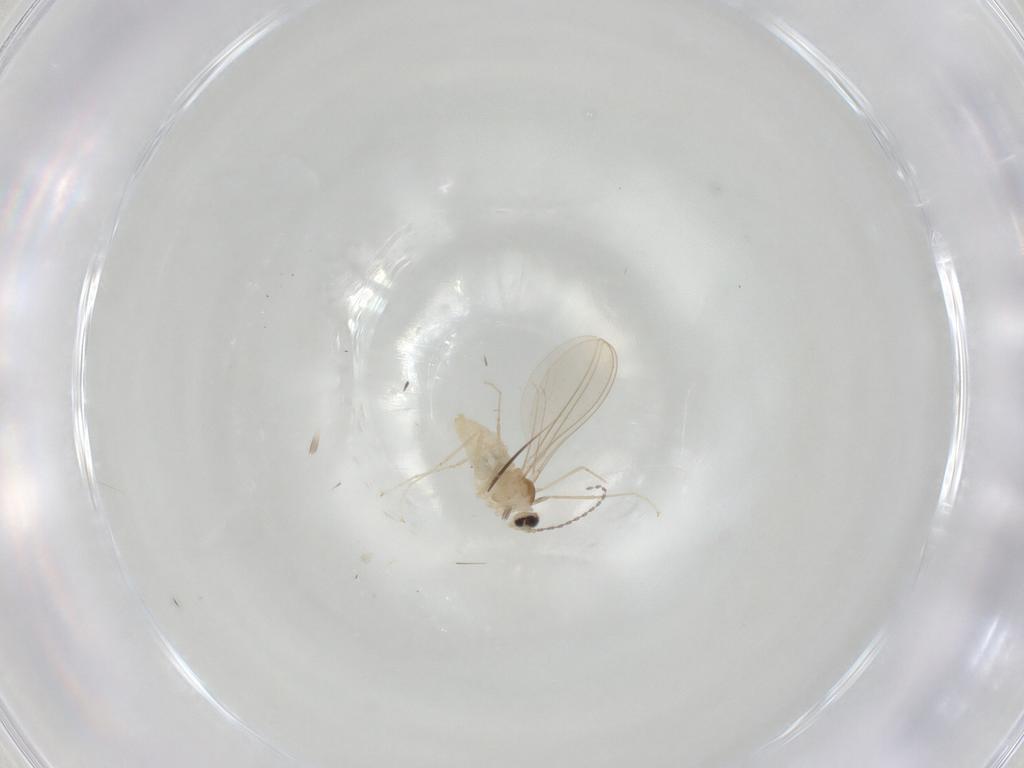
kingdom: Animalia
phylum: Arthropoda
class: Insecta
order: Diptera
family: Cecidomyiidae
